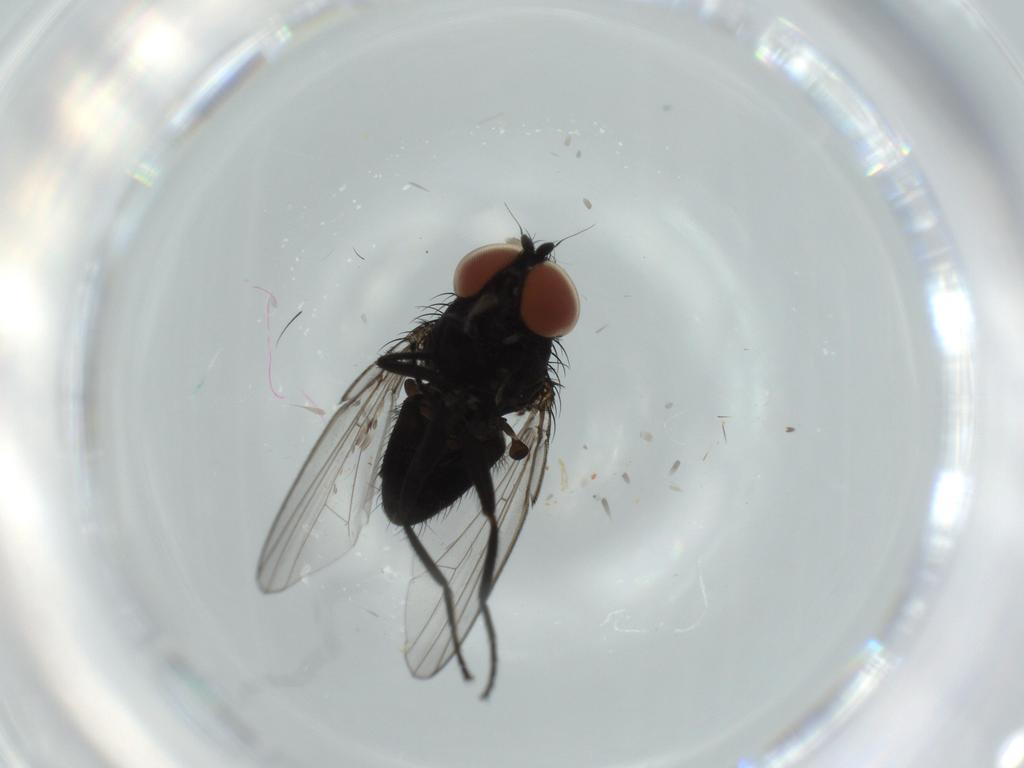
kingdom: Animalia
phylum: Arthropoda
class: Insecta
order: Diptera
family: Milichiidae
